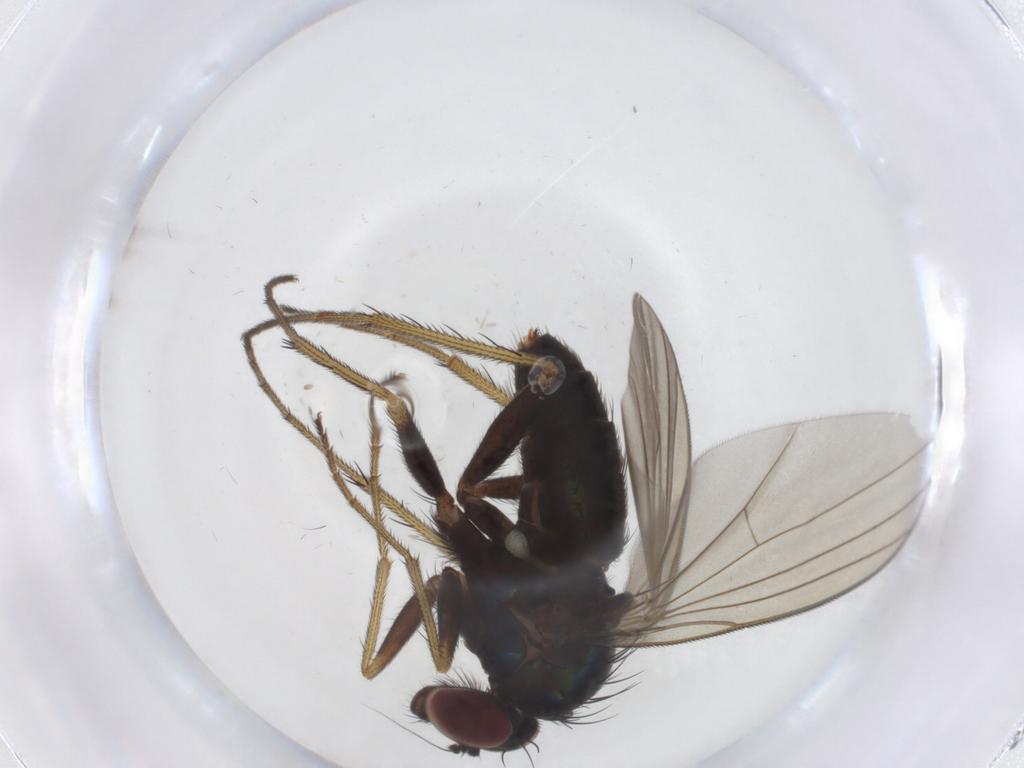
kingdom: Animalia
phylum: Arthropoda
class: Insecta
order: Diptera
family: Dolichopodidae
